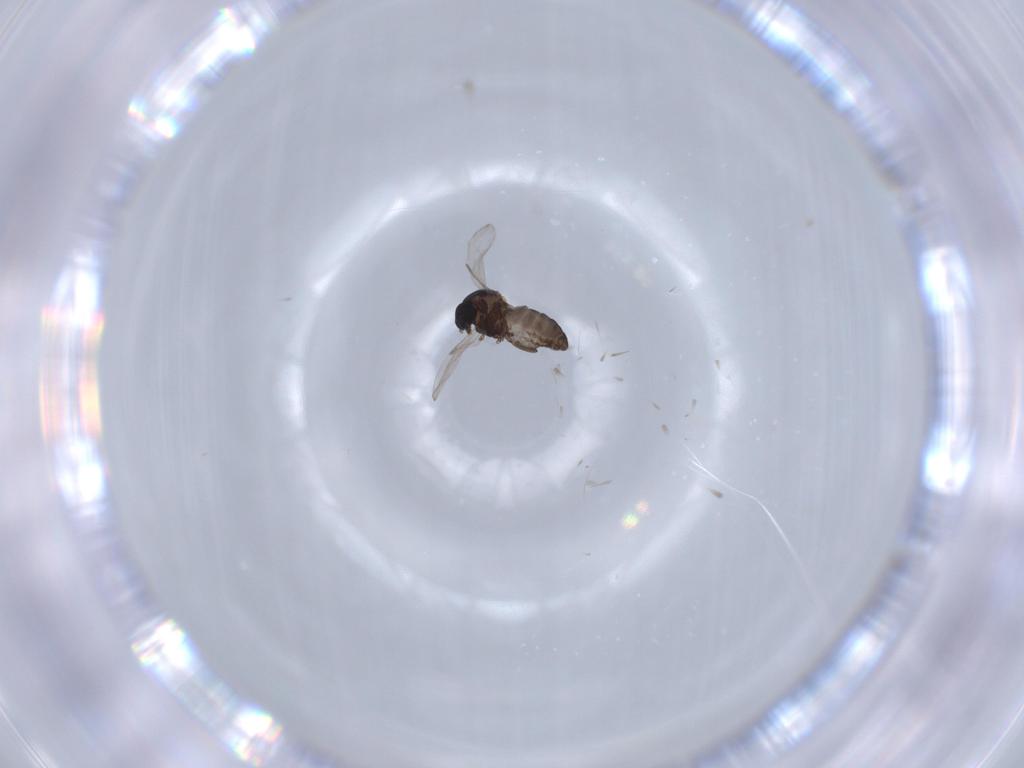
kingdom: Animalia
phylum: Arthropoda
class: Insecta
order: Diptera
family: Ceratopogonidae
